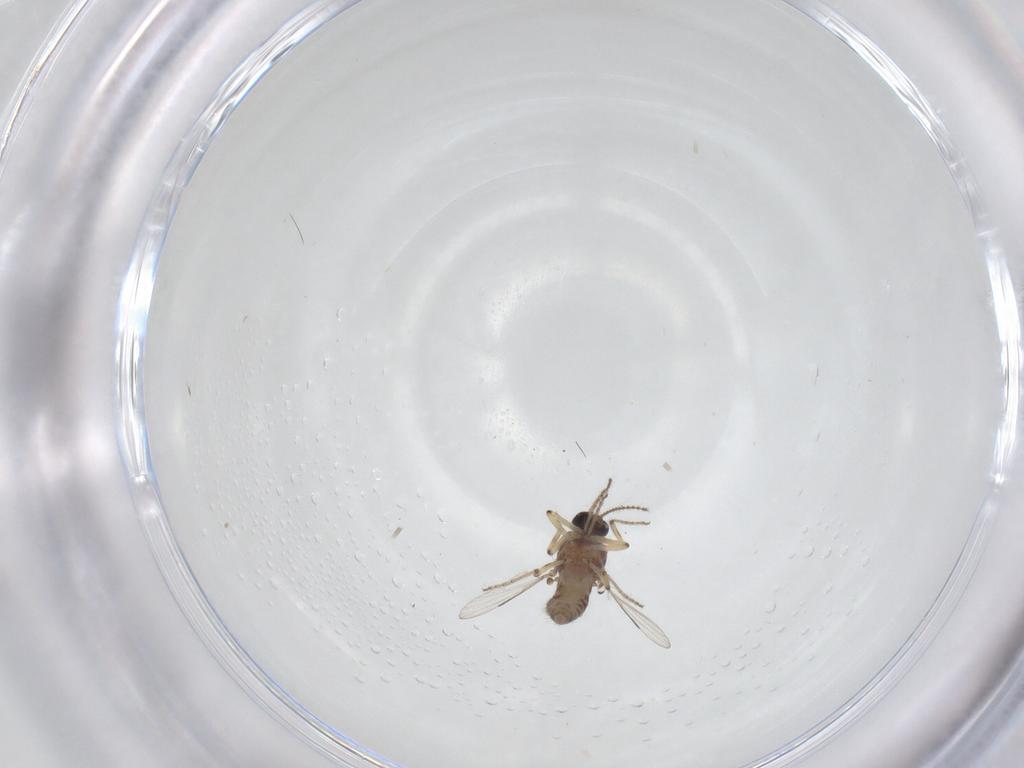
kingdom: Animalia
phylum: Arthropoda
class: Insecta
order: Diptera
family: Ceratopogonidae
